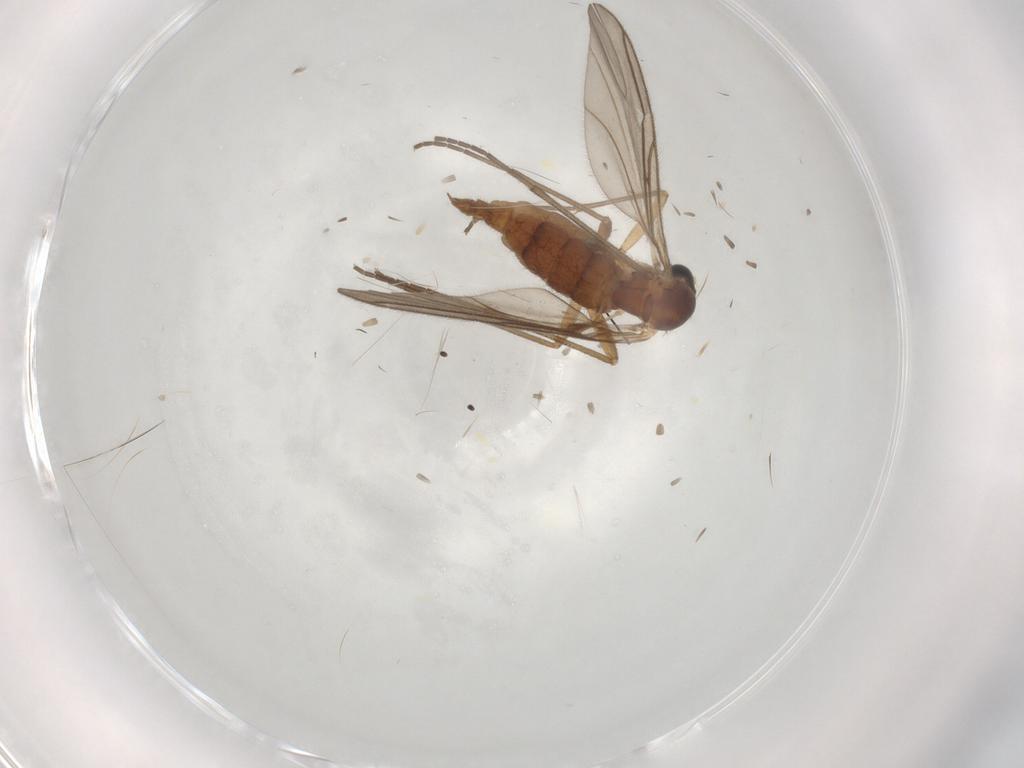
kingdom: Animalia
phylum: Arthropoda
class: Insecta
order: Diptera
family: Sciaridae
